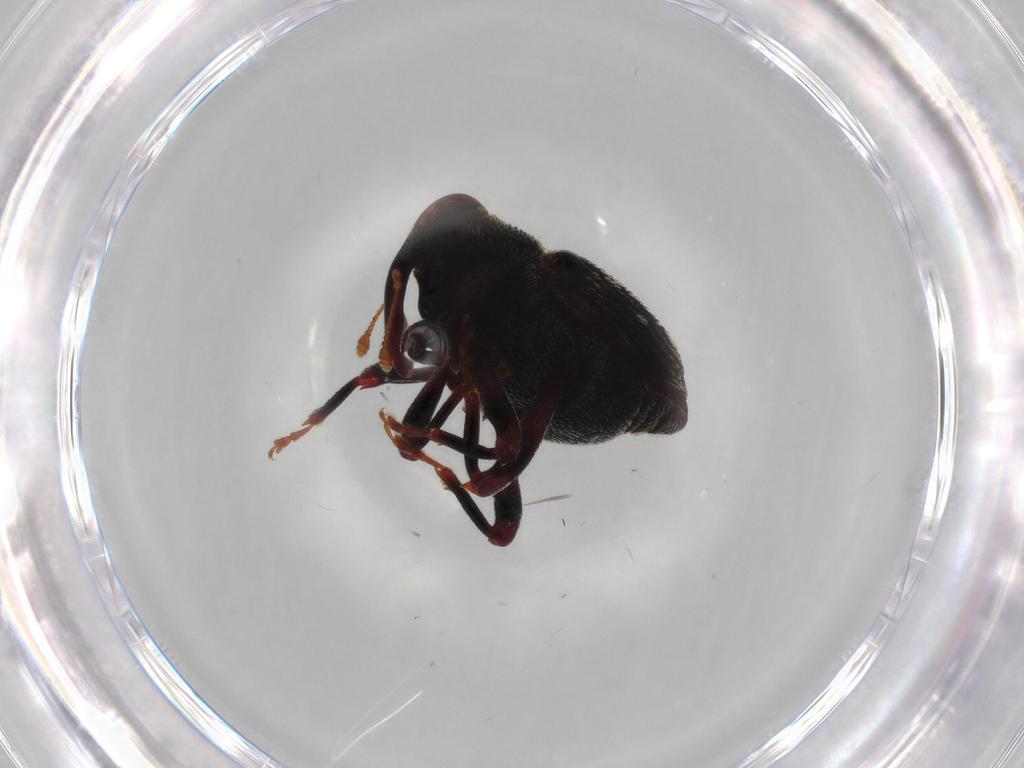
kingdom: Animalia
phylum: Arthropoda
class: Insecta
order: Coleoptera
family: Curculionidae
